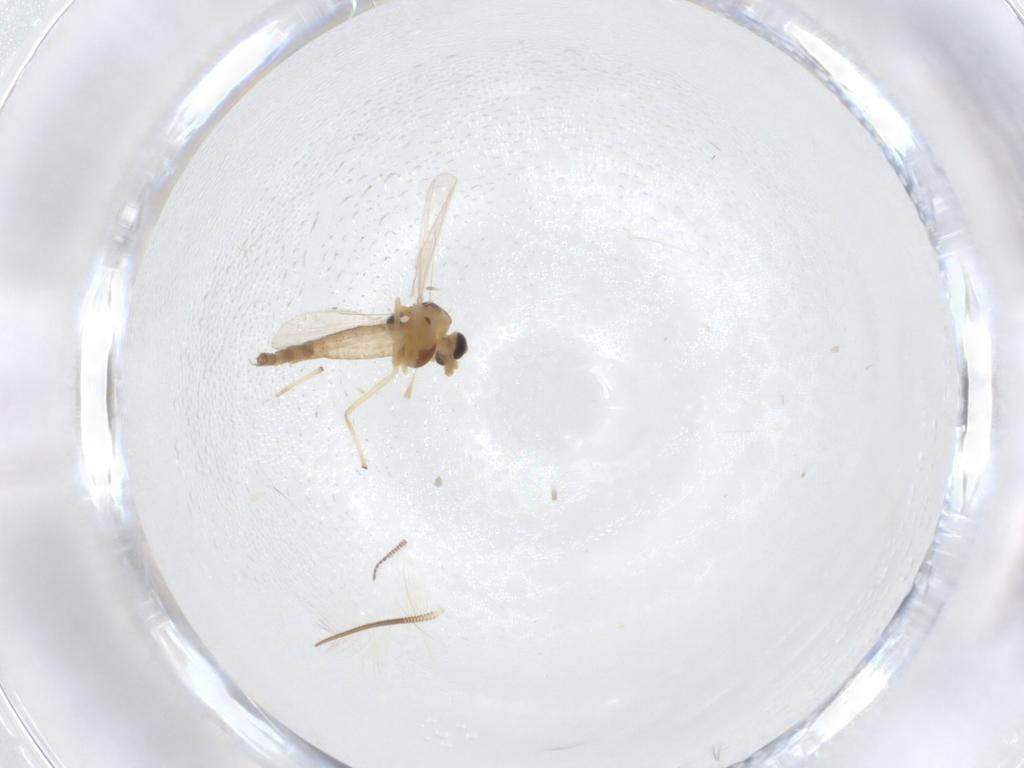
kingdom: Animalia
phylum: Arthropoda
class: Insecta
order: Diptera
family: Chironomidae
